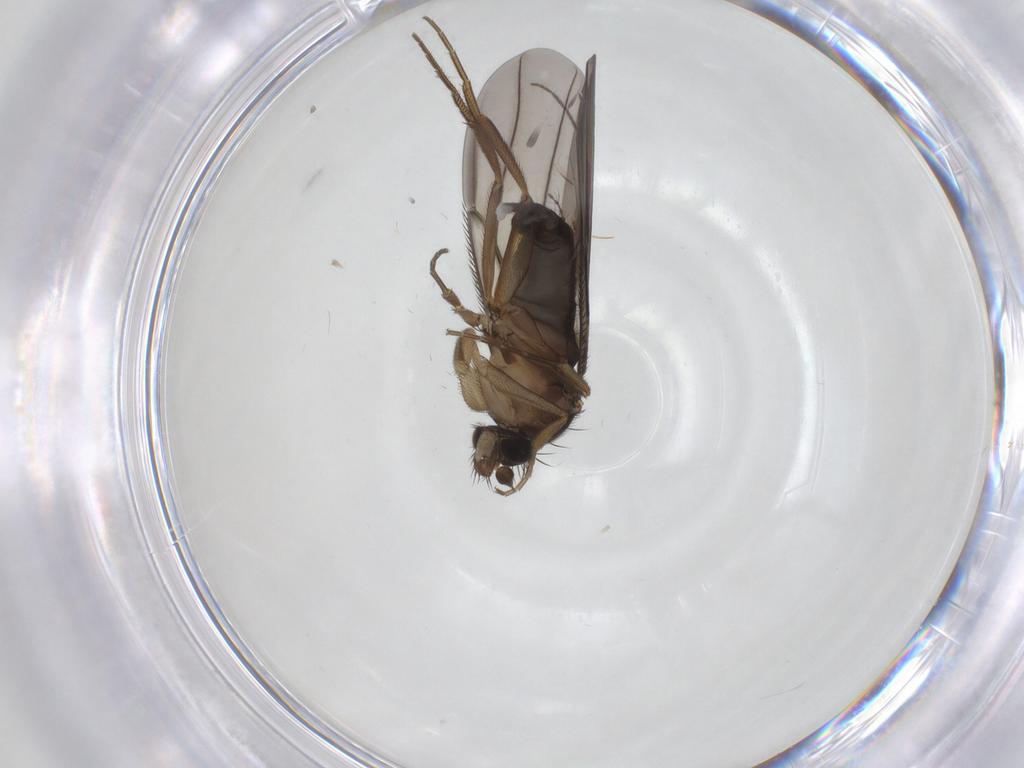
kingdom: Animalia
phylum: Arthropoda
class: Insecta
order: Diptera
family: Phoridae
